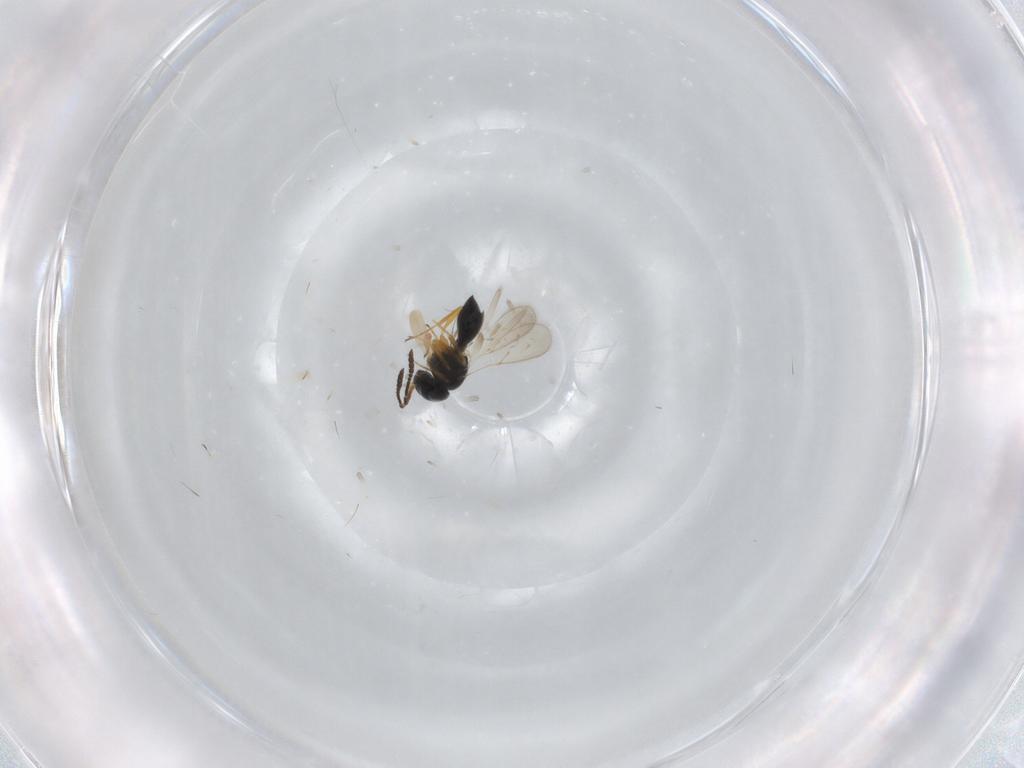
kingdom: Animalia
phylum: Arthropoda
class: Insecta
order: Hymenoptera
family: Scelionidae
